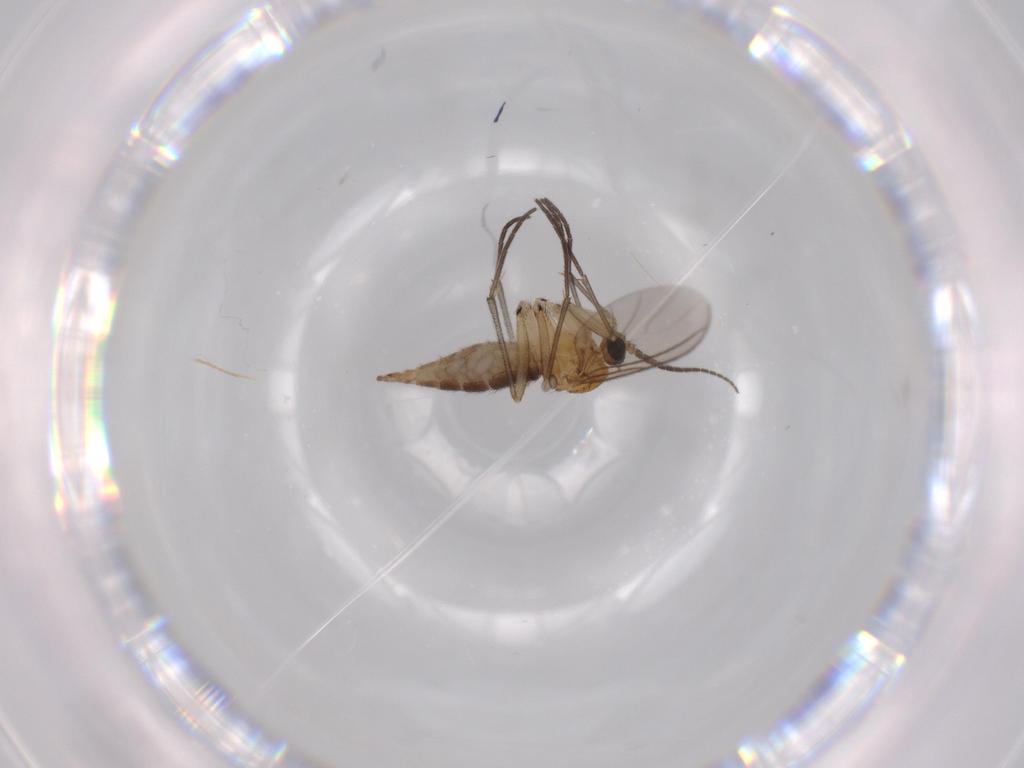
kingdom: Animalia
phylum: Arthropoda
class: Insecta
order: Diptera
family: Sciaridae
